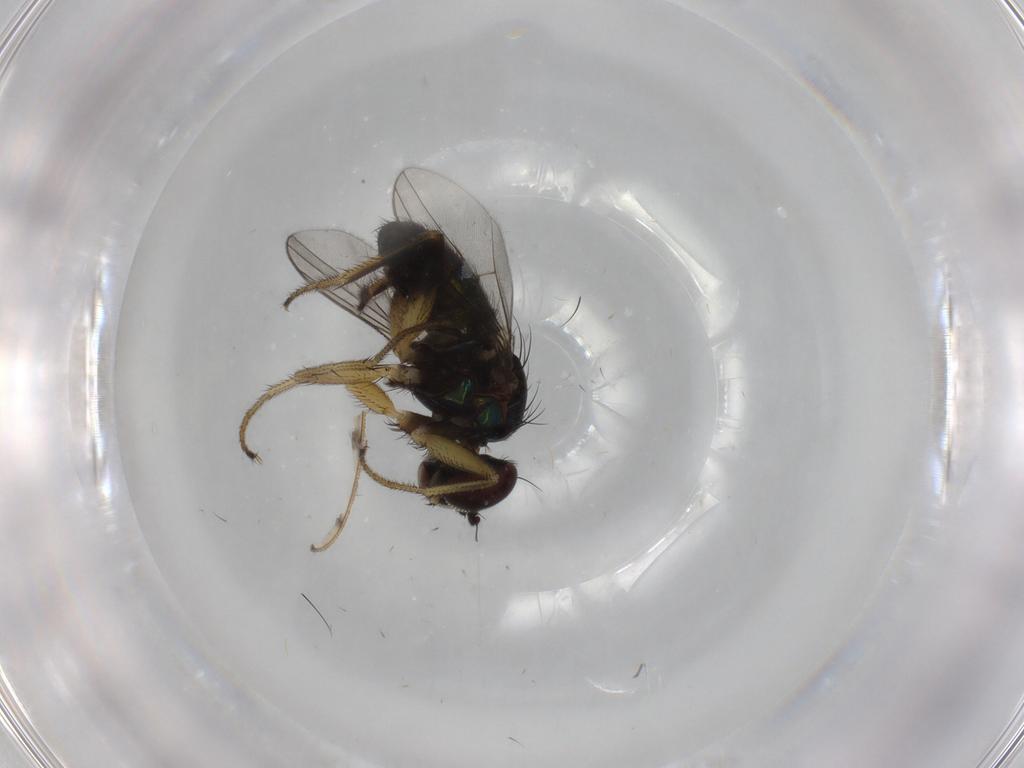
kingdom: Animalia
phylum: Arthropoda
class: Insecta
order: Diptera
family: Dolichopodidae
